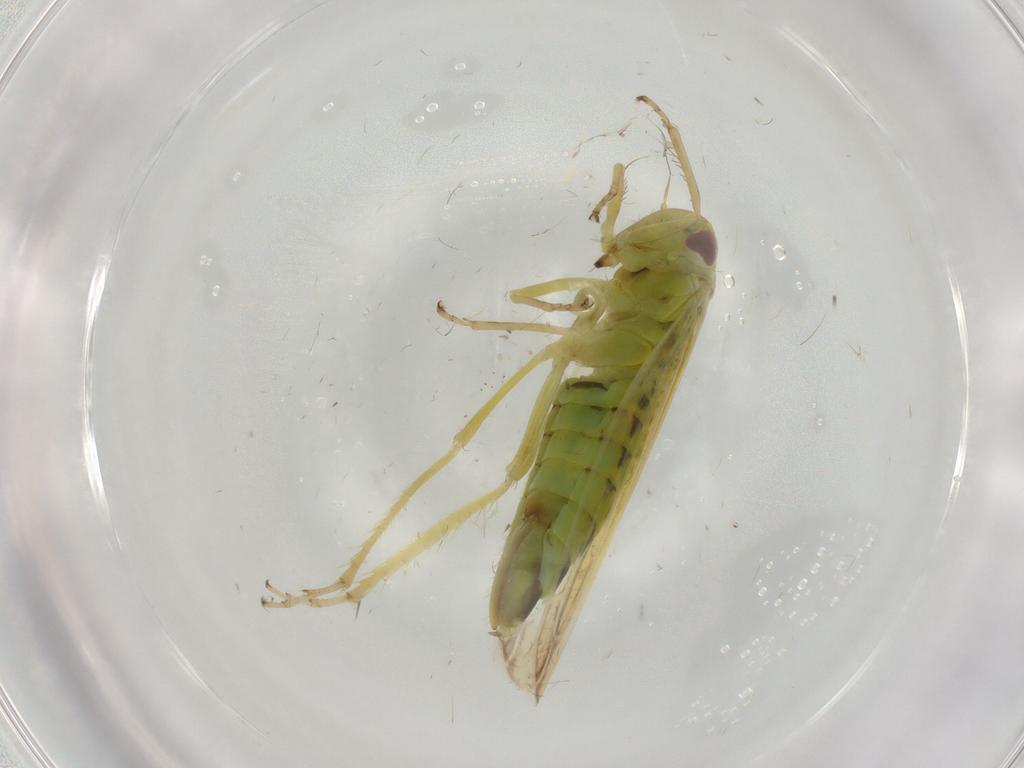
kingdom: Animalia
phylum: Arthropoda
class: Insecta
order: Hemiptera
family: Cicadellidae
